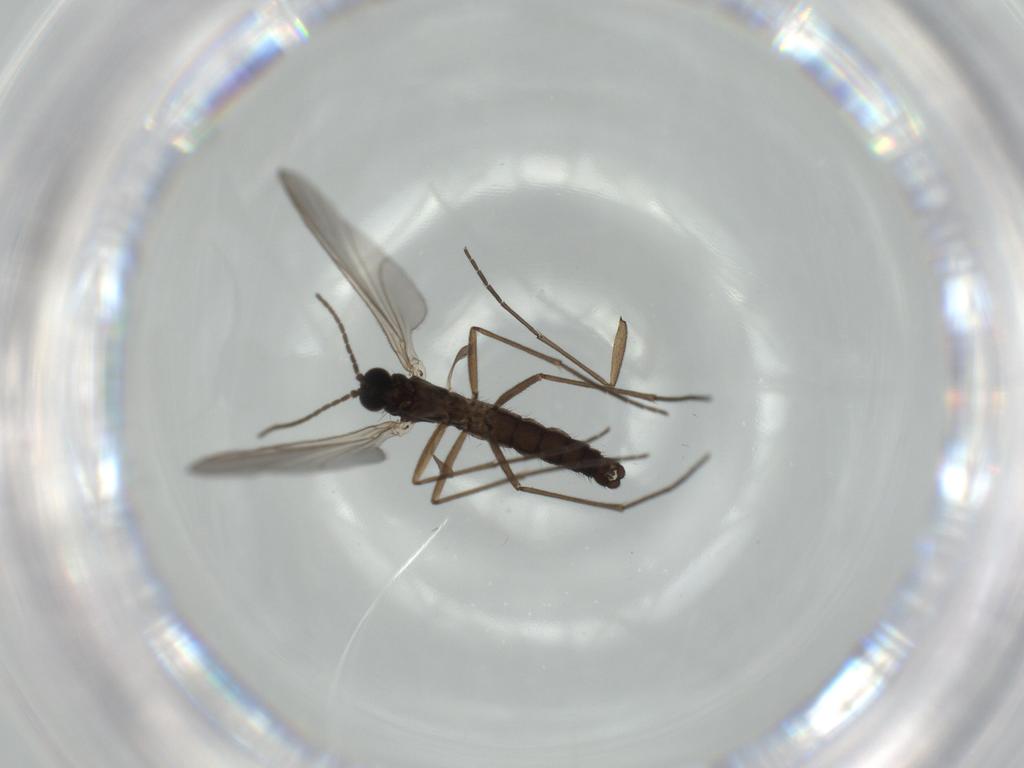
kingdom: Animalia
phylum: Arthropoda
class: Insecta
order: Diptera
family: Sciaridae
